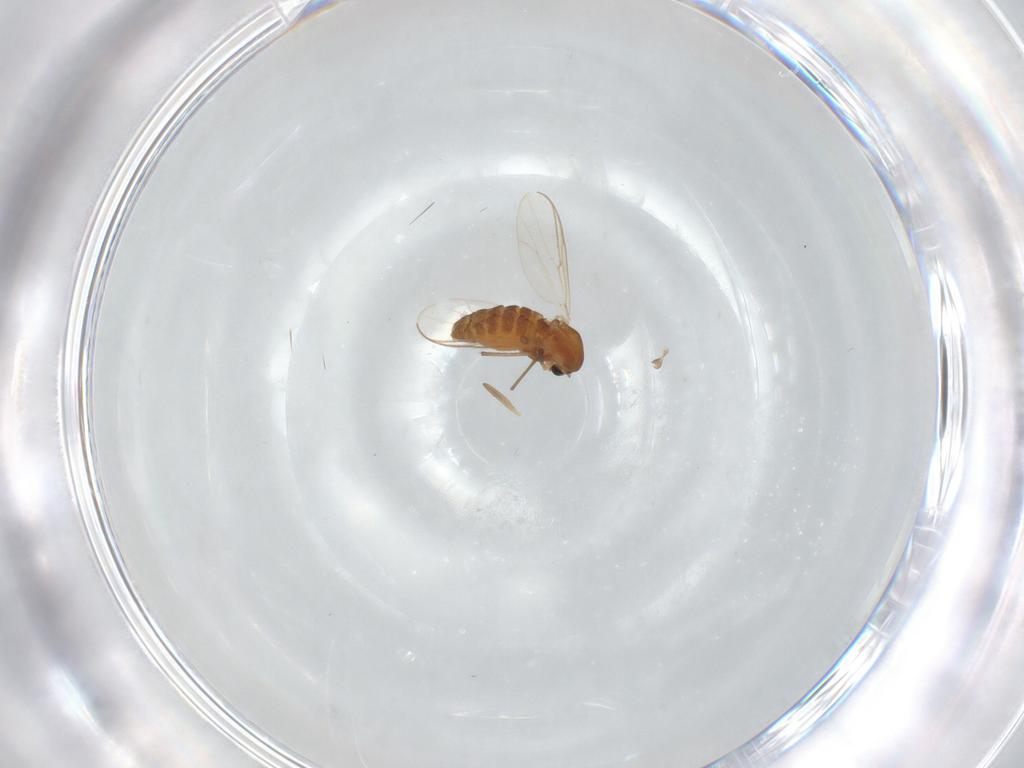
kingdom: Animalia
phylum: Arthropoda
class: Insecta
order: Diptera
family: Chironomidae
